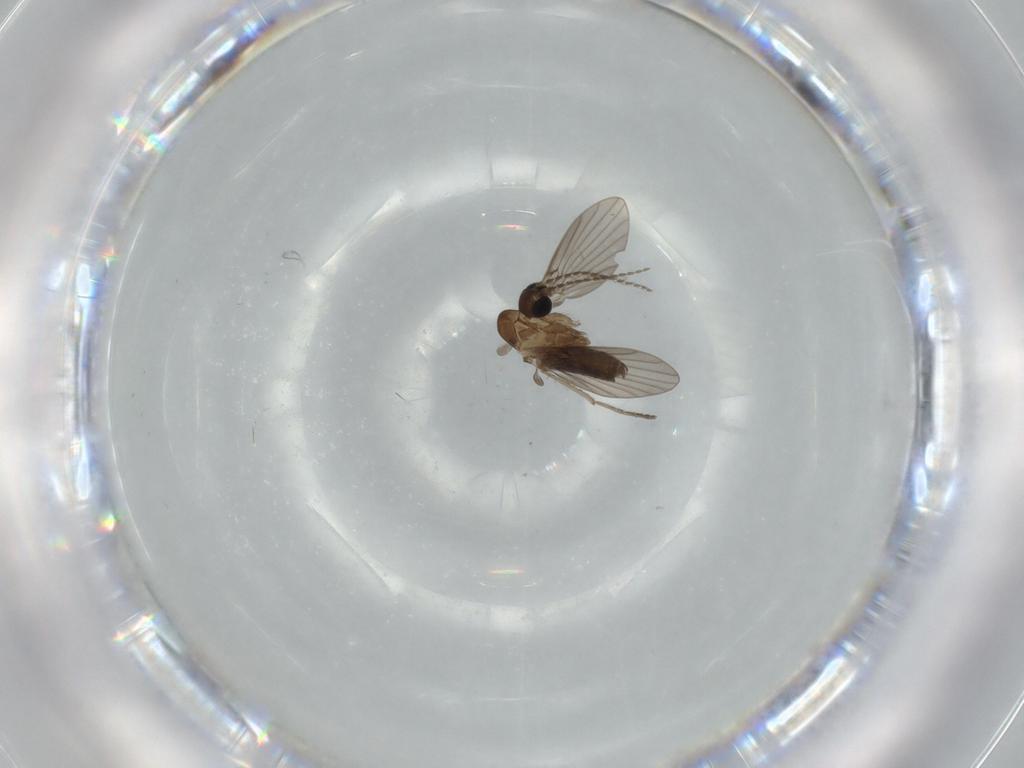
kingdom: Animalia
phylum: Arthropoda
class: Insecta
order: Diptera
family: Psychodidae
